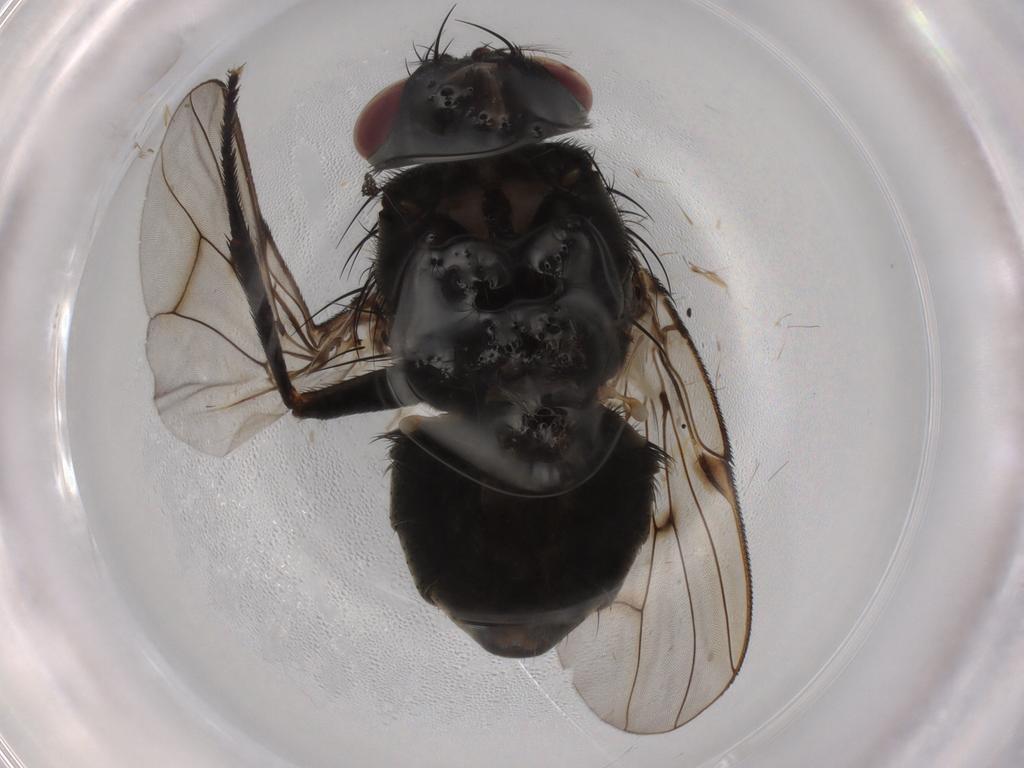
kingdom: Animalia
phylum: Arthropoda
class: Insecta
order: Diptera
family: Muscidae
